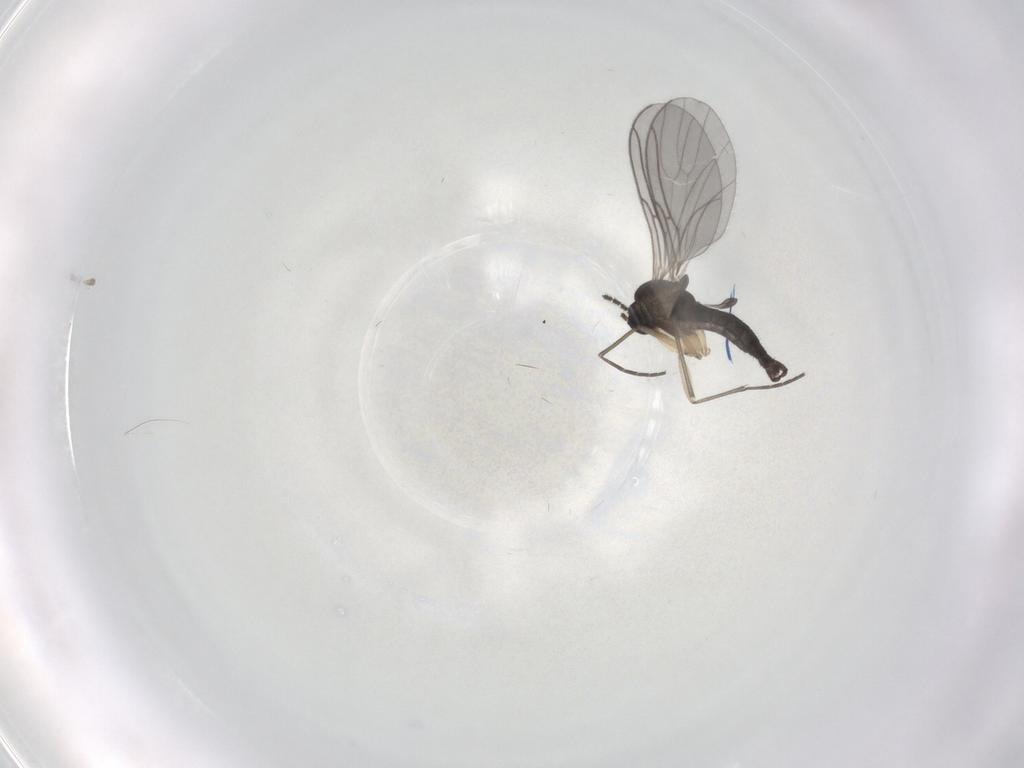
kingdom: Animalia
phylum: Arthropoda
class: Insecta
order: Diptera
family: Sciaridae
